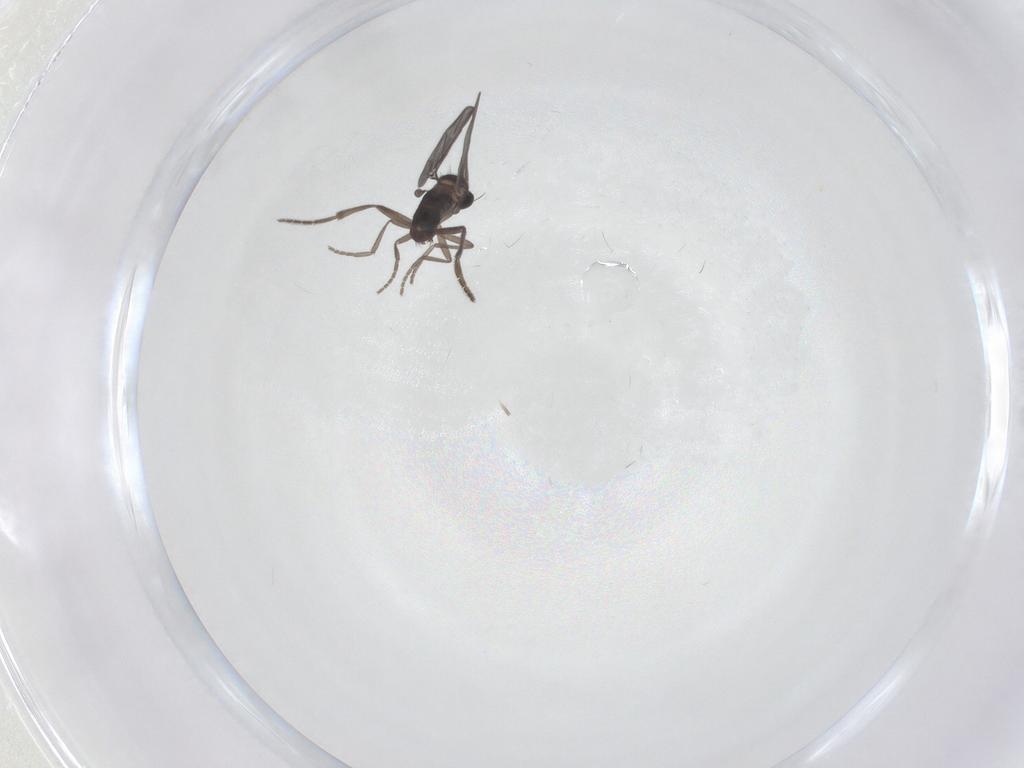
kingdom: Animalia
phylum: Arthropoda
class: Insecta
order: Diptera
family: Phoridae
